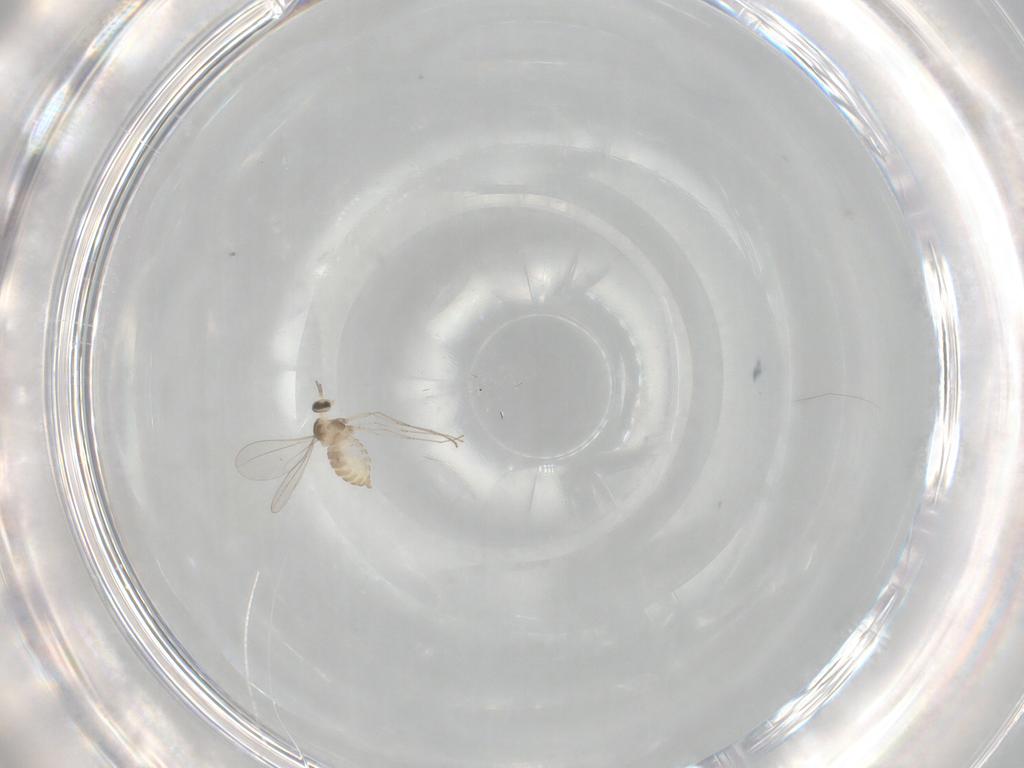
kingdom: Animalia
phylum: Arthropoda
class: Insecta
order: Diptera
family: Cecidomyiidae
